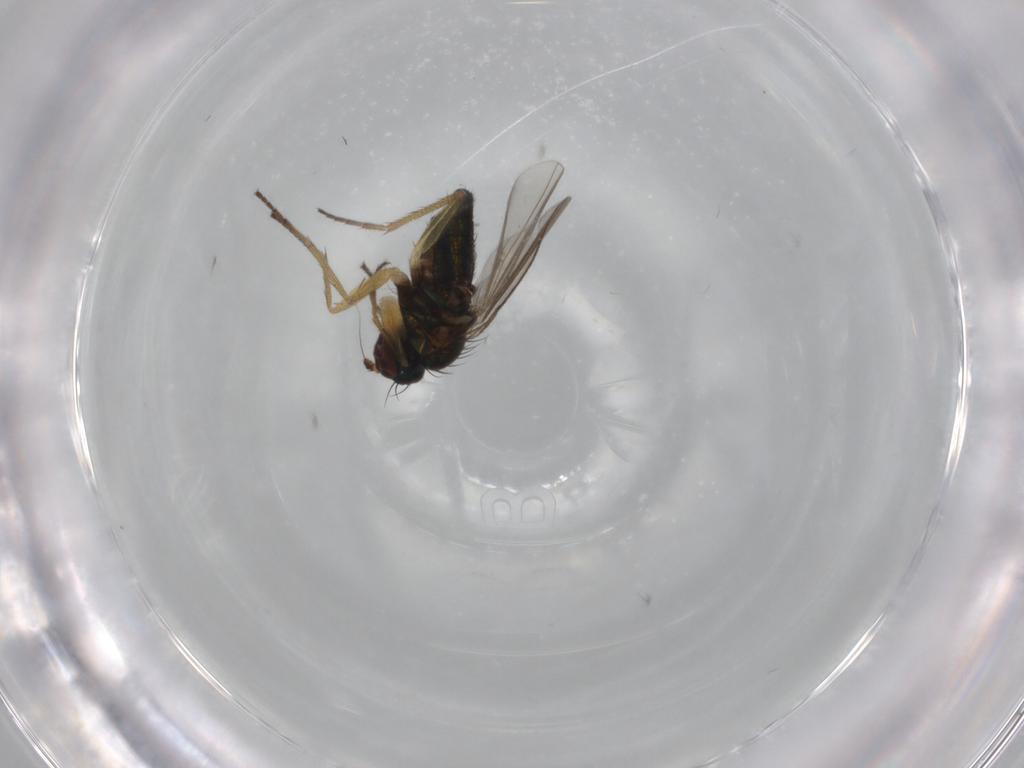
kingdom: Animalia
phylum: Arthropoda
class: Insecta
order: Diptera
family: Dolichopodidae
